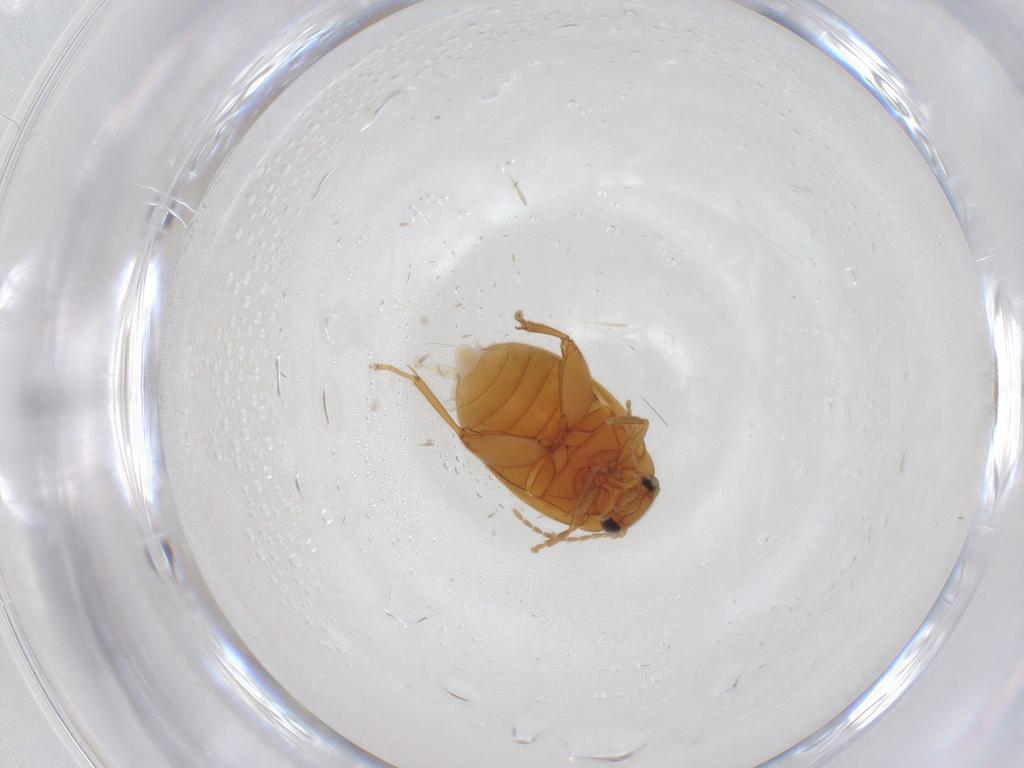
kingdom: Animalia
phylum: Arthropoda
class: Insecta
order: Coleoptera
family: Scirtidae
